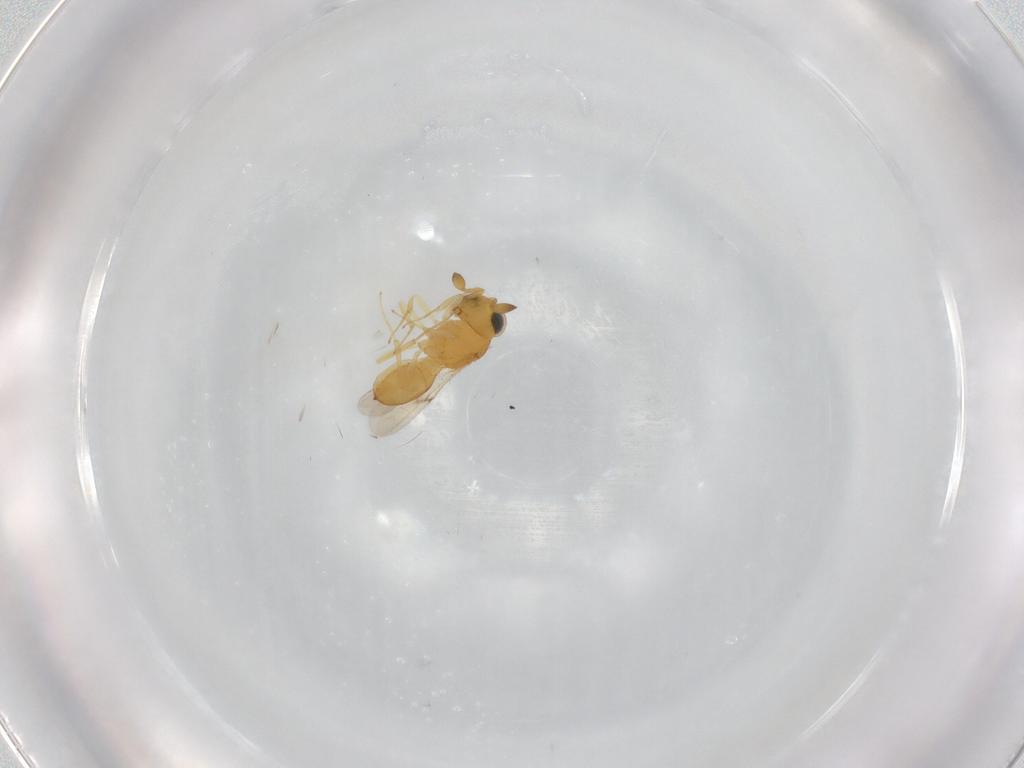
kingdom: Animalia
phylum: Arthropoda
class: Insecta
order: Hymenoptera
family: Scelionidae
